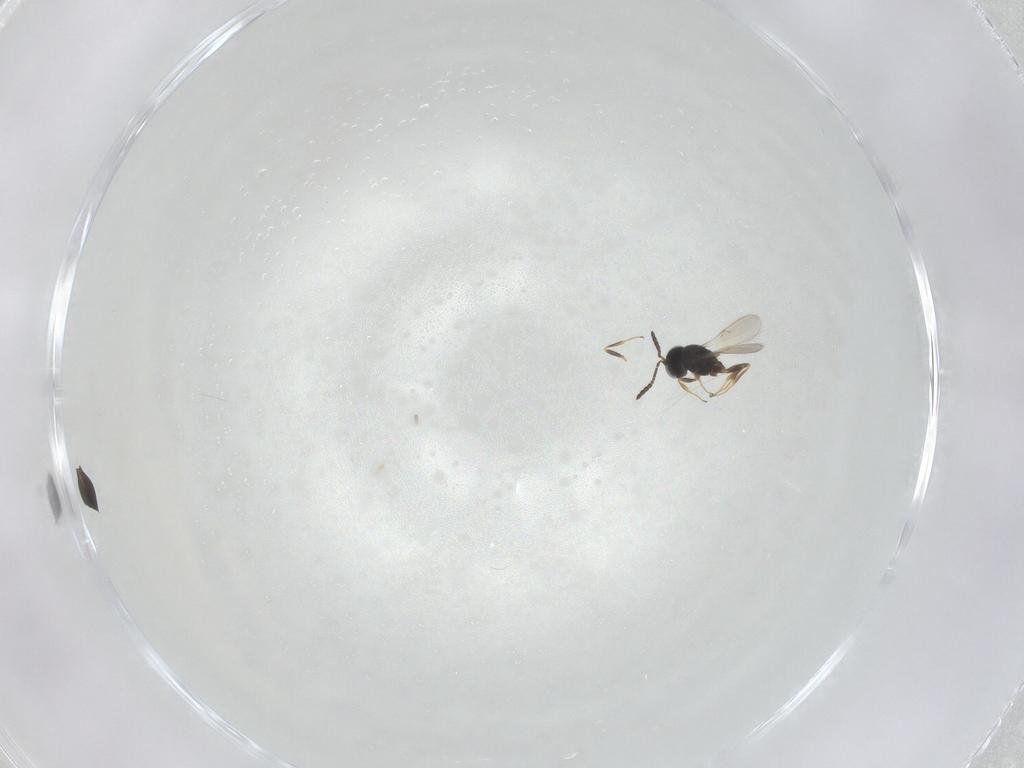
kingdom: Animalia
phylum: Arthropoda
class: Insecta
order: Hymenoptera
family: Scelionidae
